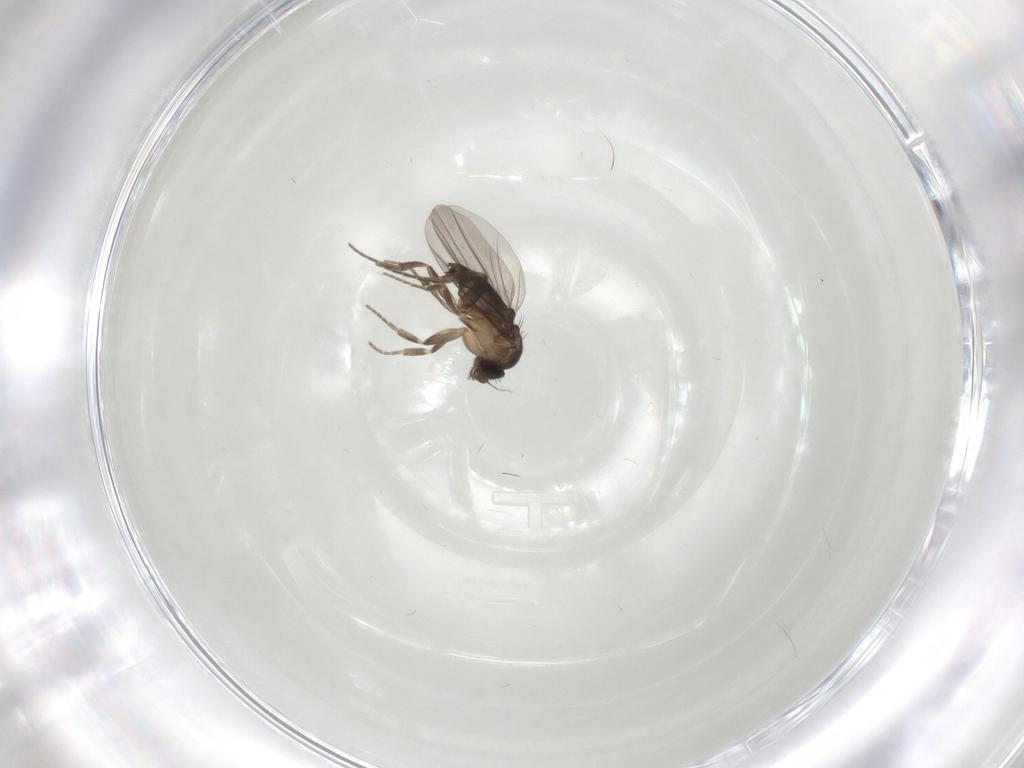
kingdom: Animalia
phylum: Arthropoda
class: Insecta
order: Diptera
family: Phoridae
